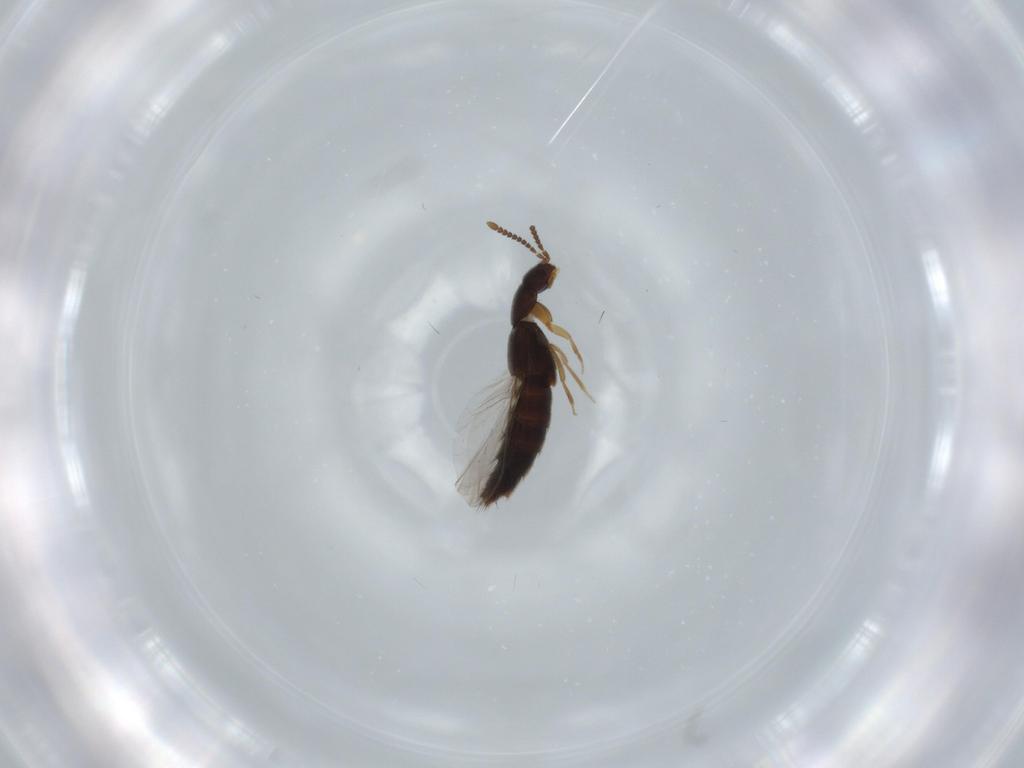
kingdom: Animalia
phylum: Arthropoda
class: Insecta
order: Coleoptera
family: Staphylinidae
